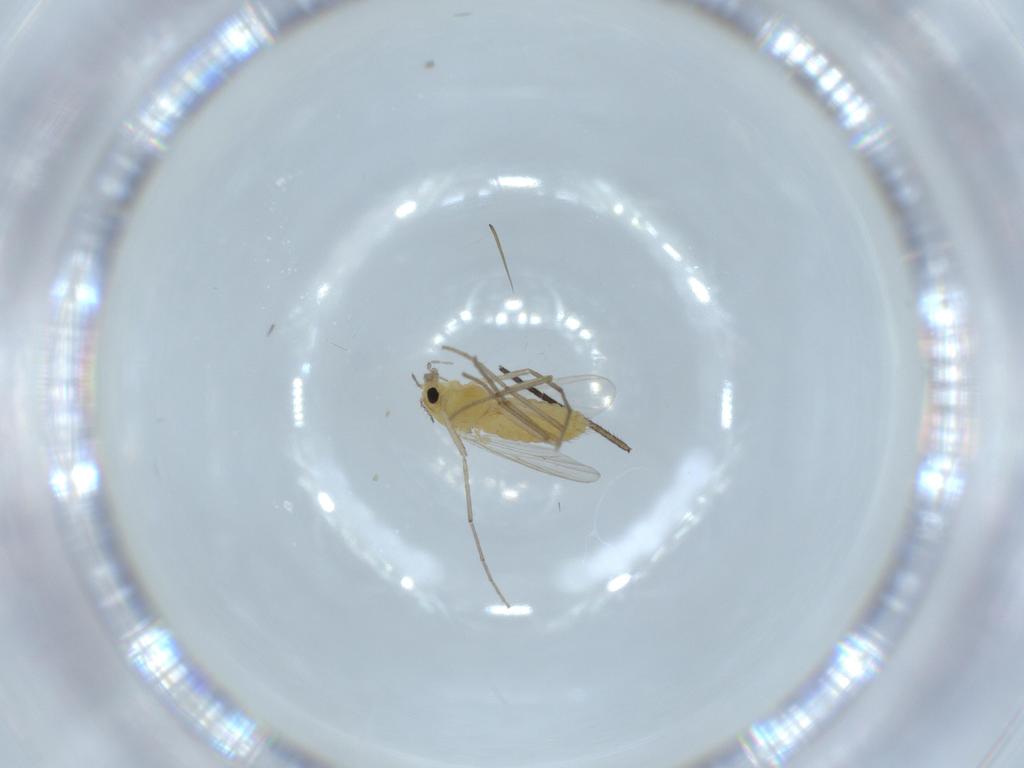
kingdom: Animalia
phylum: Arthropoda
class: Insecta
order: Diptera
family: Chironomidae
